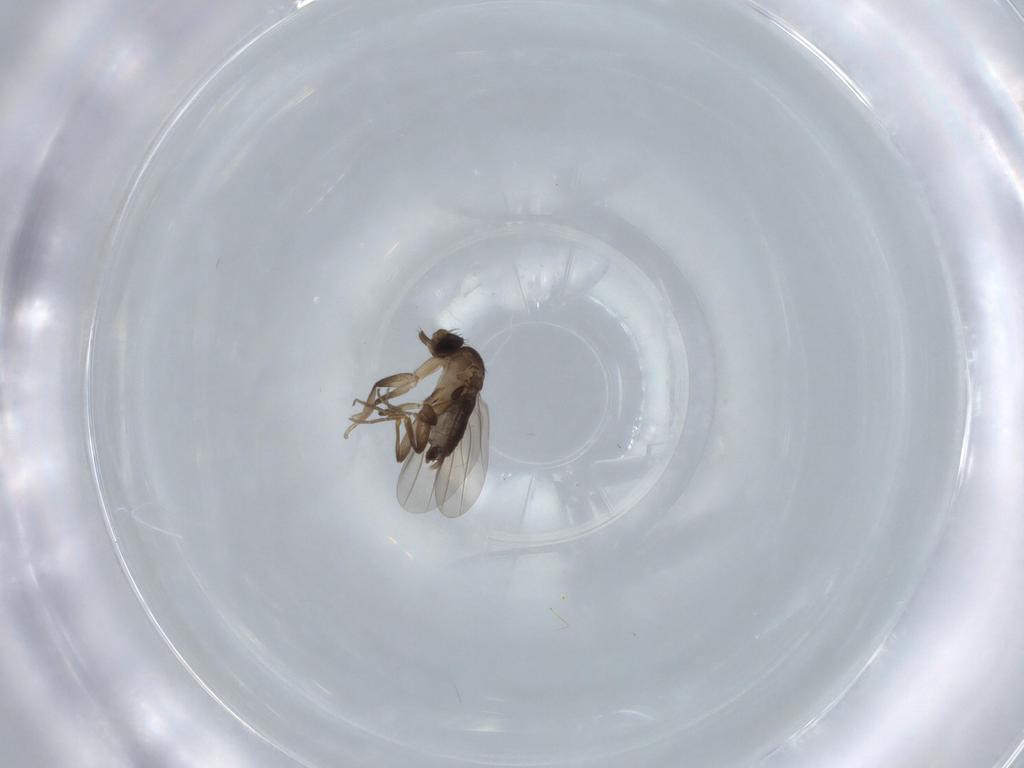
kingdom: Animalia
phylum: Arthropoda
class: Insecta
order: Diptera
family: Phoridae
